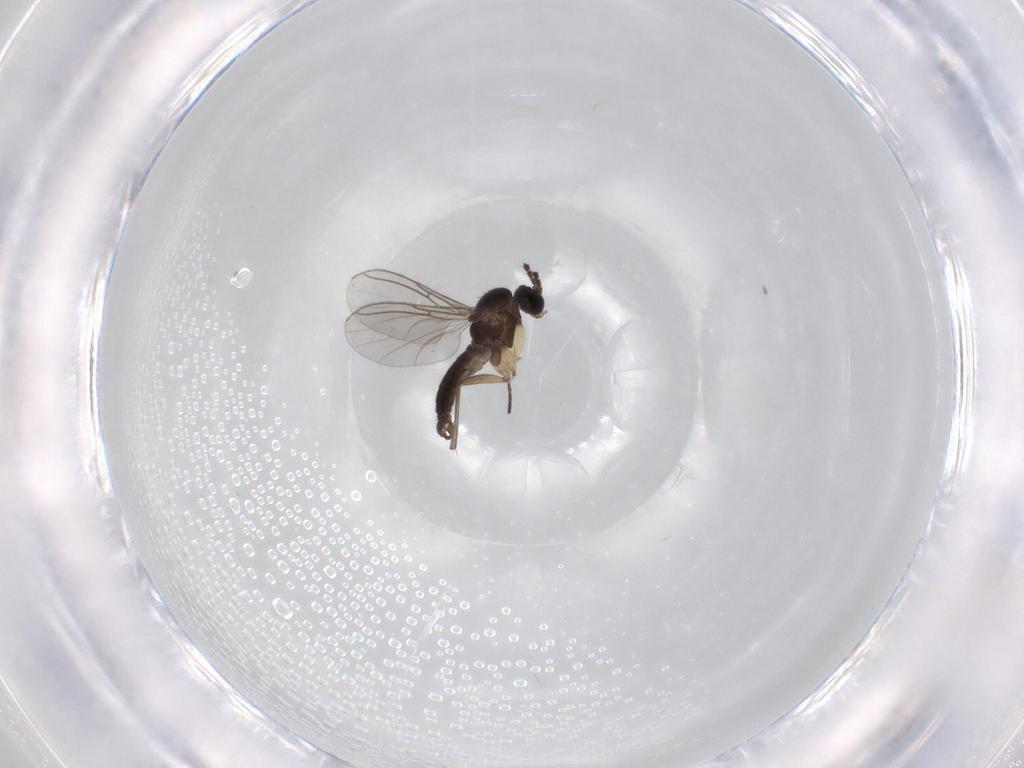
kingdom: Animalia
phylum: Arthropoda
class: Insecta
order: Diptera
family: Sciaridae
